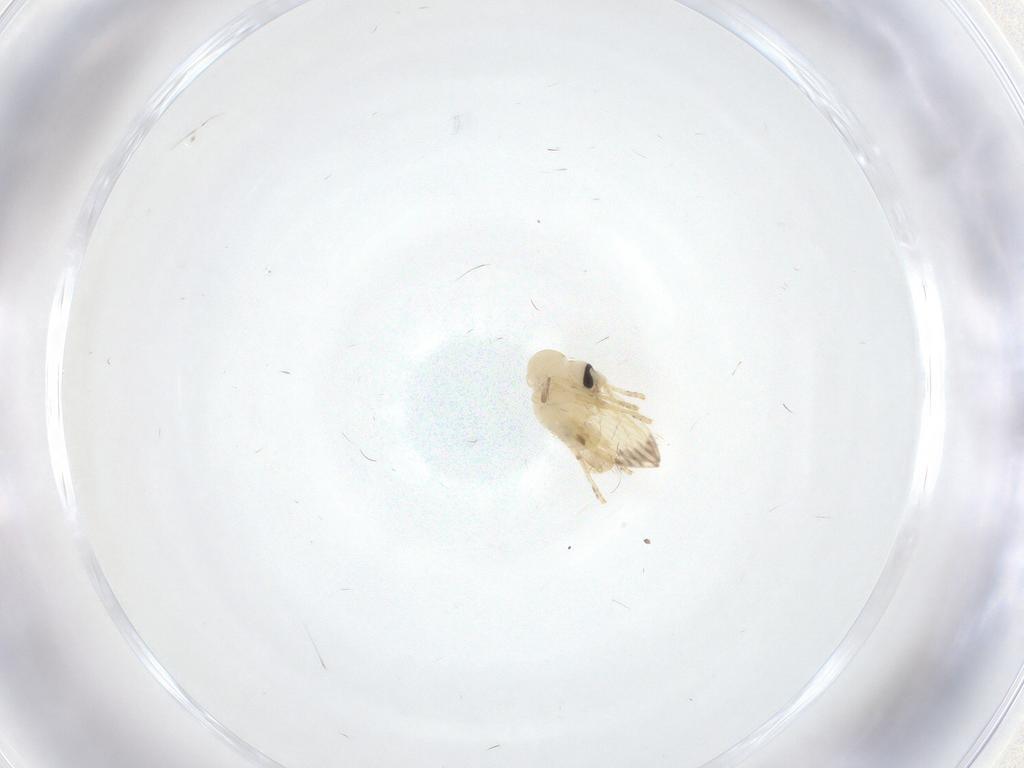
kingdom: Animalia
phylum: Arthropoda
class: Insecta
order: Diptera
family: Psychodidae
